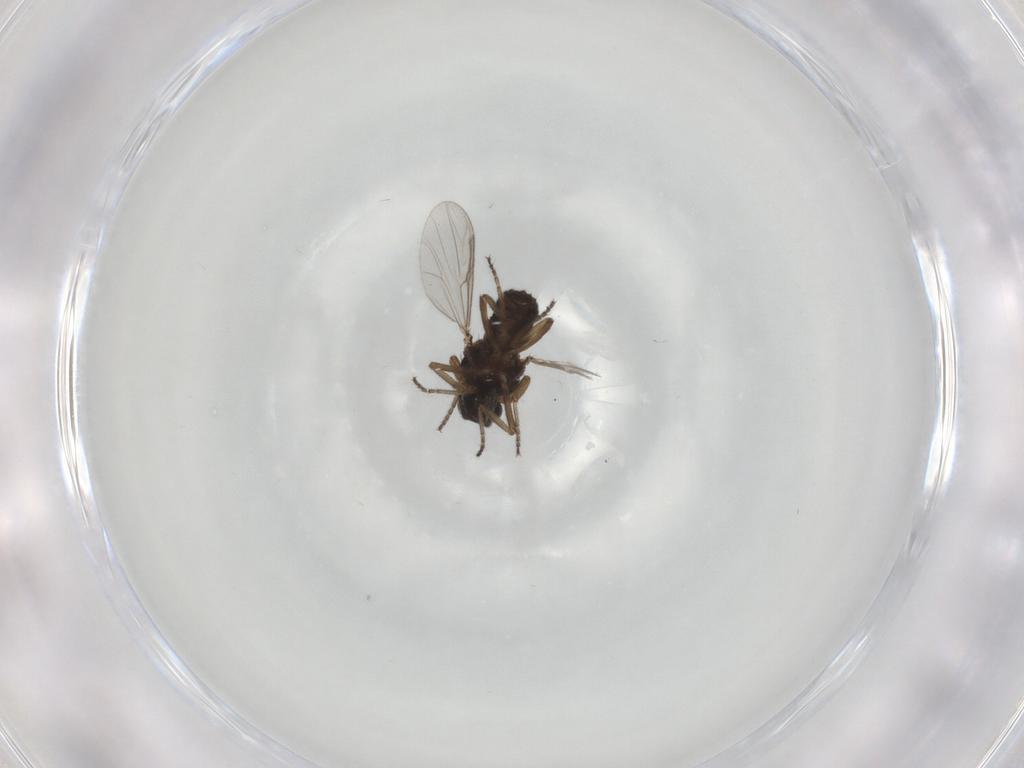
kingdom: Animalia
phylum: Arthropoda
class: Insecta
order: Diptera
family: Ceratopogonidae
